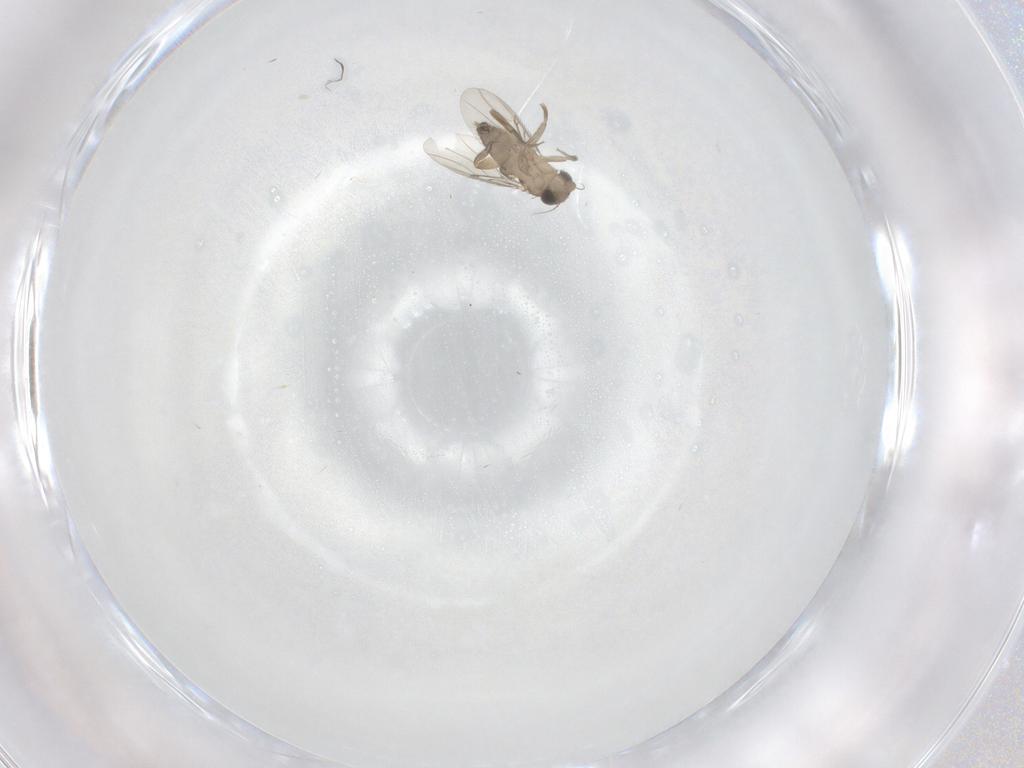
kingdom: Animalia
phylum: Arthropoda
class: Insecta
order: Diptera
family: Phoridae
